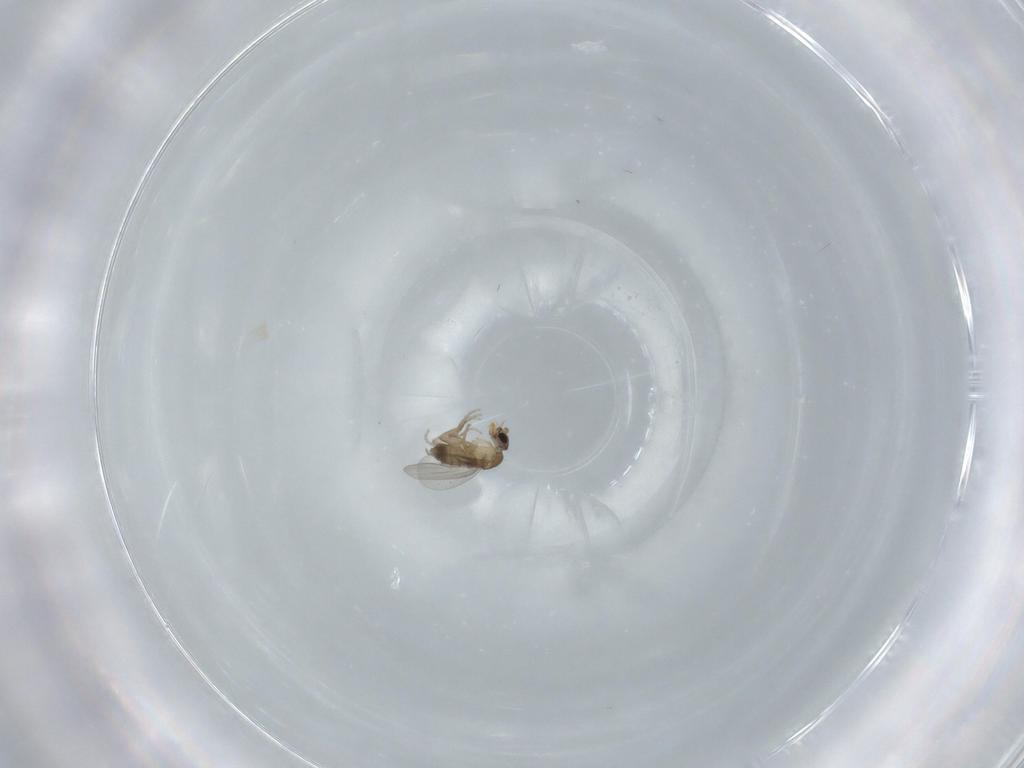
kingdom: Animalia
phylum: Arthropoda
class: Insecta
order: Diptera
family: Phoridae
